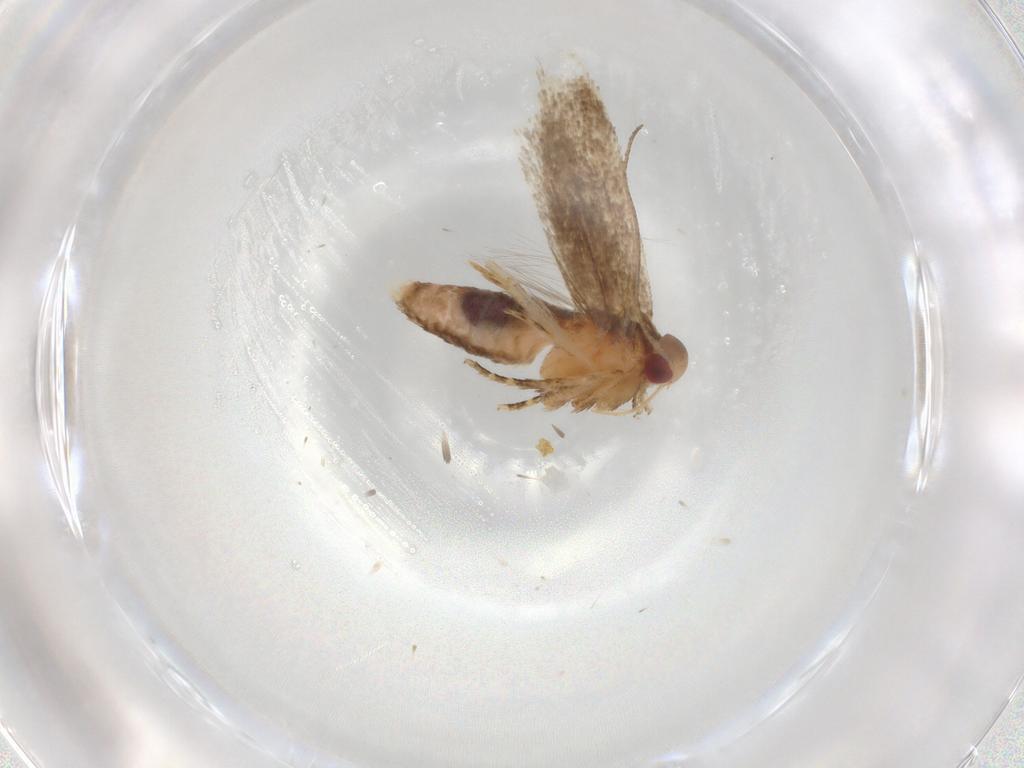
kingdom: Animalia
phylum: Arthropoda
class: Insecta
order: Lepidoptera
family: Gelechiidae
